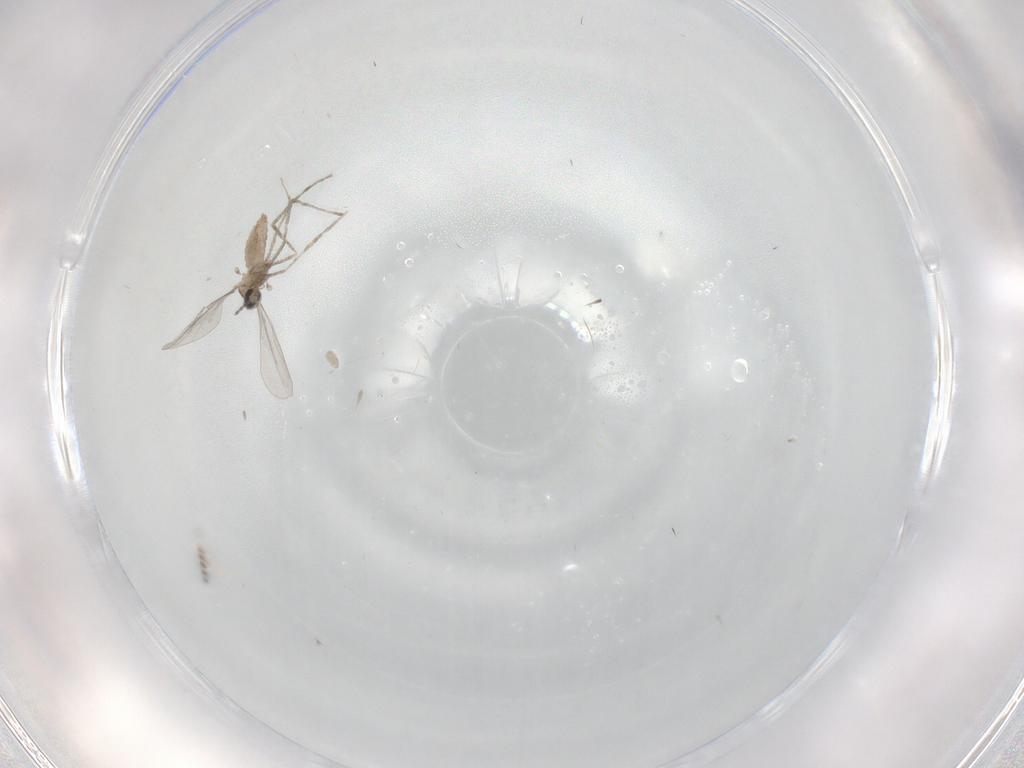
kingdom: Animalia
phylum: Arthropoda
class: Insecta
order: Diptera
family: Cecidomyiidae
